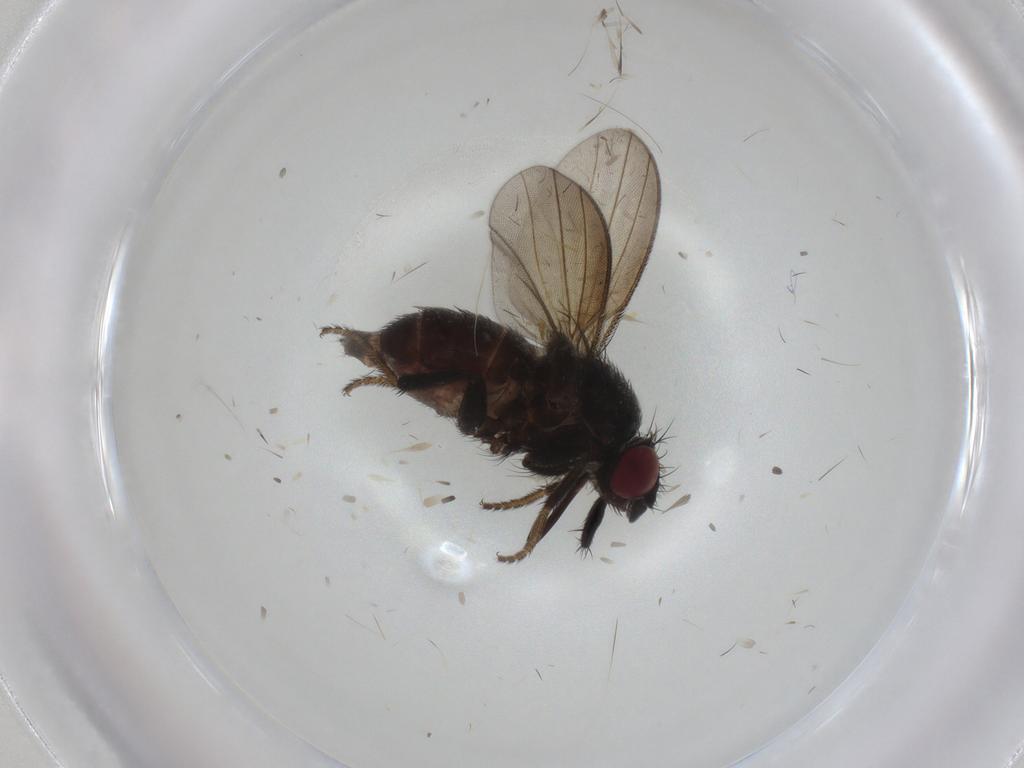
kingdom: Animalia
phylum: Arthropoda
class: Insecta
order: Diptera
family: Milichiidae
